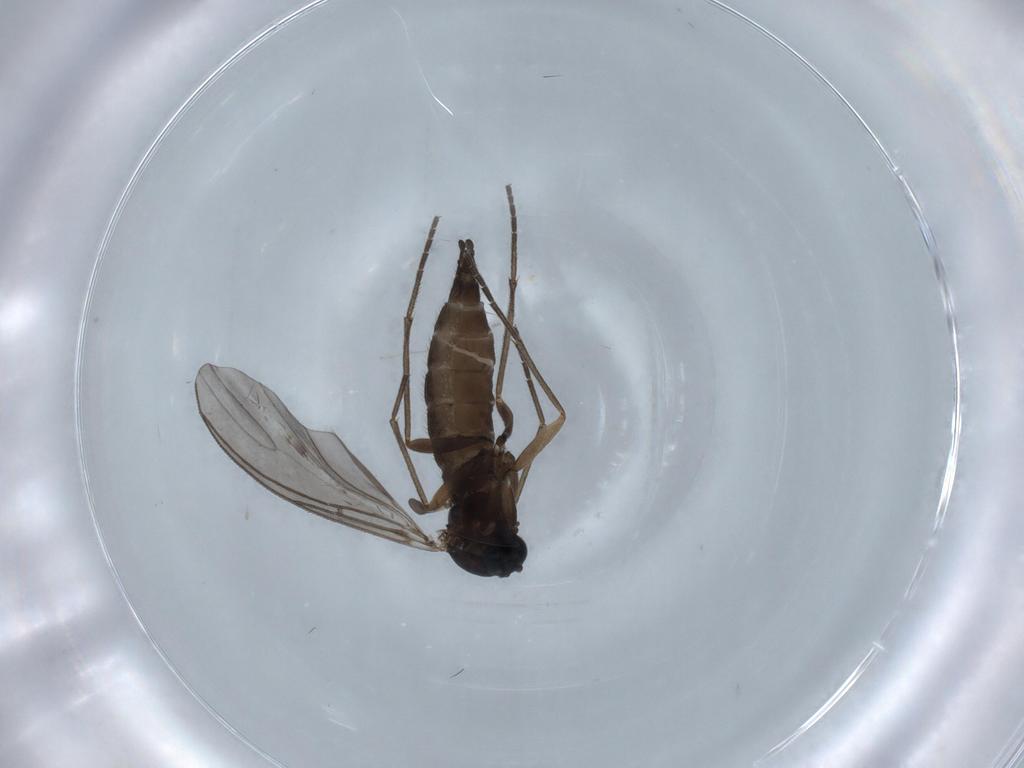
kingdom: Animalia
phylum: Arthropoda
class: Insecta
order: Diptera
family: Sciaridae
